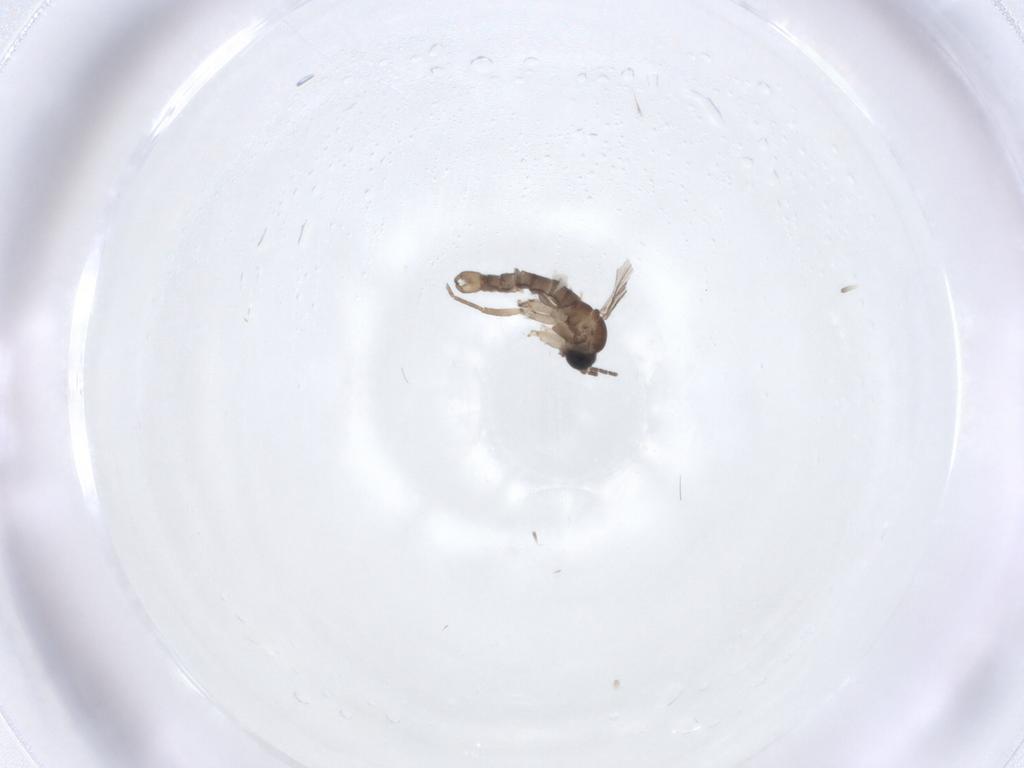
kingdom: Animalia
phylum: Arthropoda
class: Insecta
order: Diptera
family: Sciaridae
